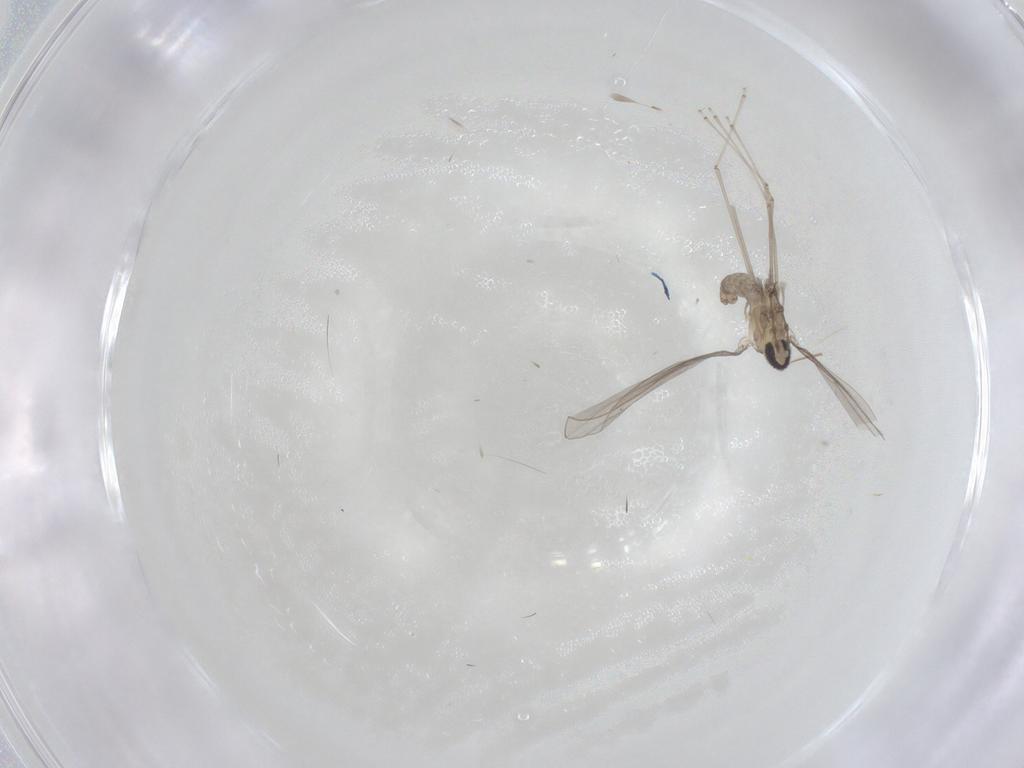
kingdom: Animalia
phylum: Arthropoda
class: Insecta
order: Diptera
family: Cecidomyiidae
